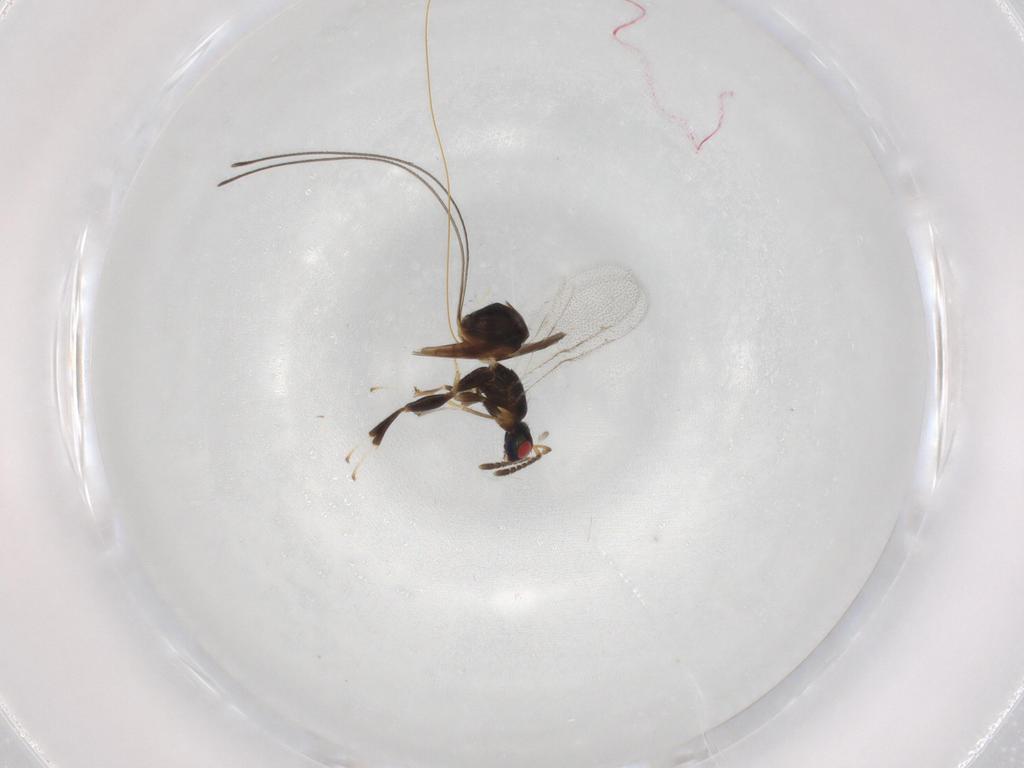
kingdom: Animalia
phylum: Arthropoda
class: Insecta
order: Hymenoptera
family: Torymidae
